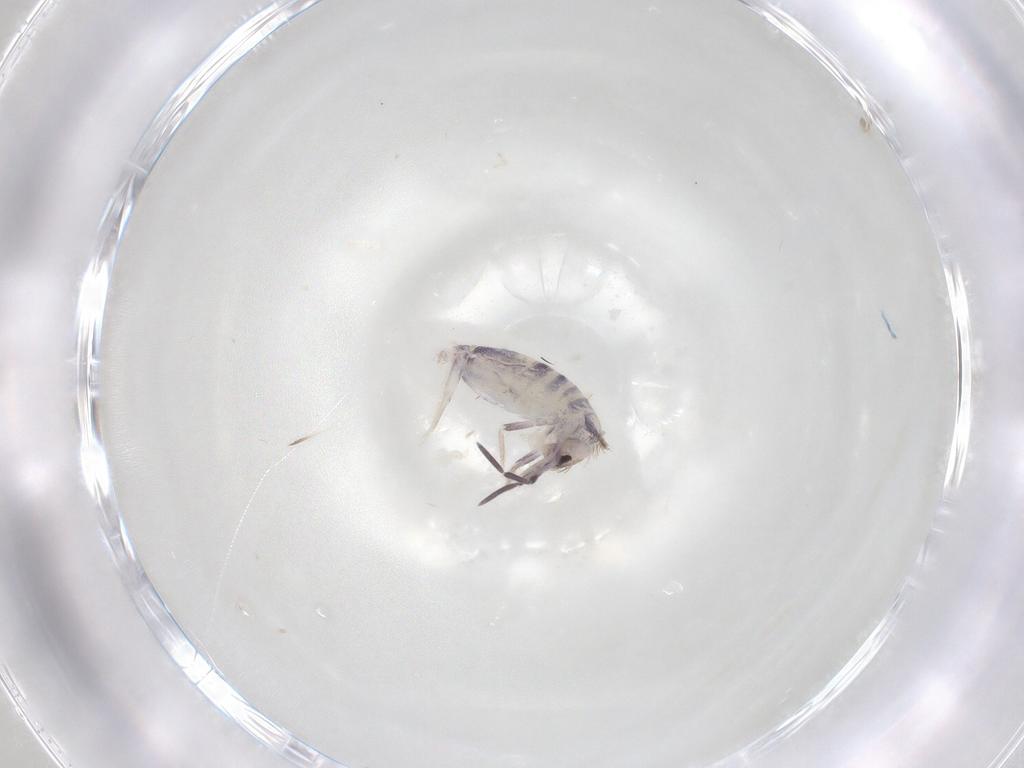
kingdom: Animalia
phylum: Arthropoda
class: Collembola
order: Poduromorpha
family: Hypogastruridae
